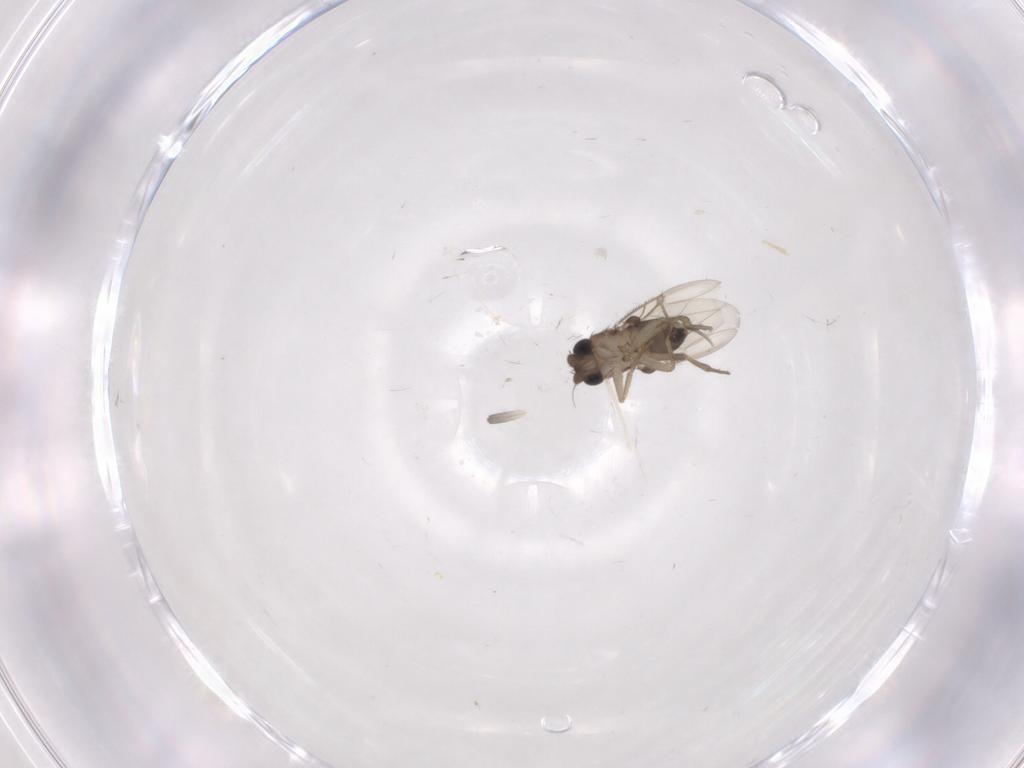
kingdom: Animalia
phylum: Arthropoda
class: Insecta
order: Diptera
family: Phoridae
